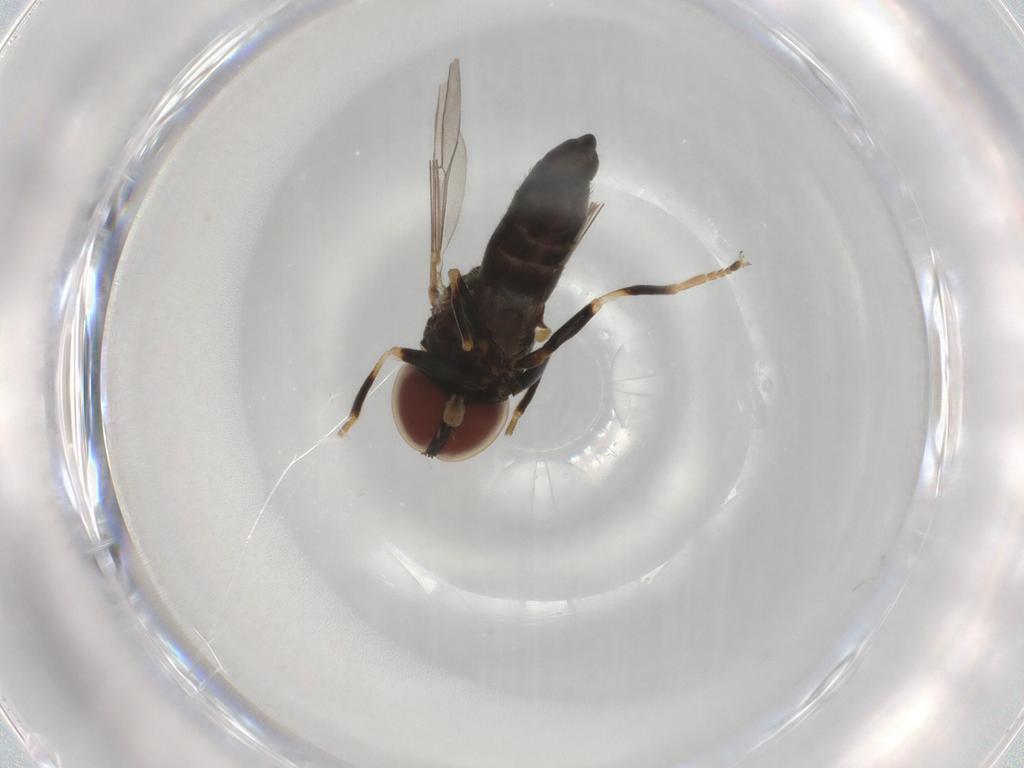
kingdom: Animalia
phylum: Arthropoda
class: Insecta
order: Diptera
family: Pipunculidae
